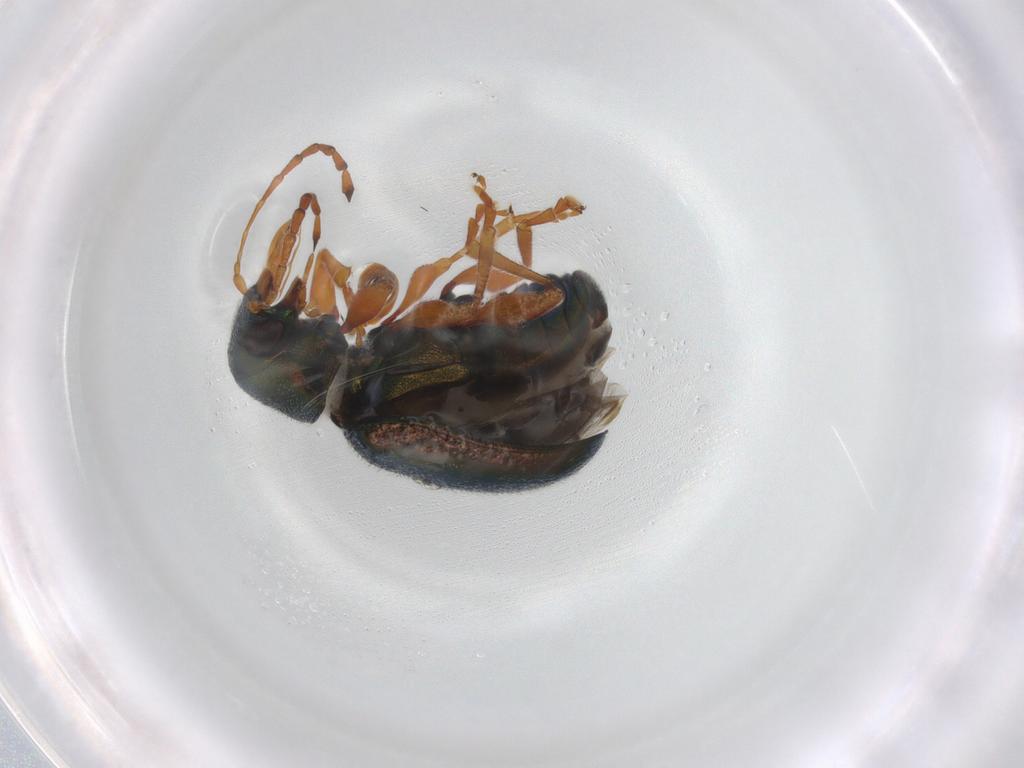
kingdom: Animalia
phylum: Arthropoda
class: Insecta
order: Coleoptera
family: Chrysomelidae
